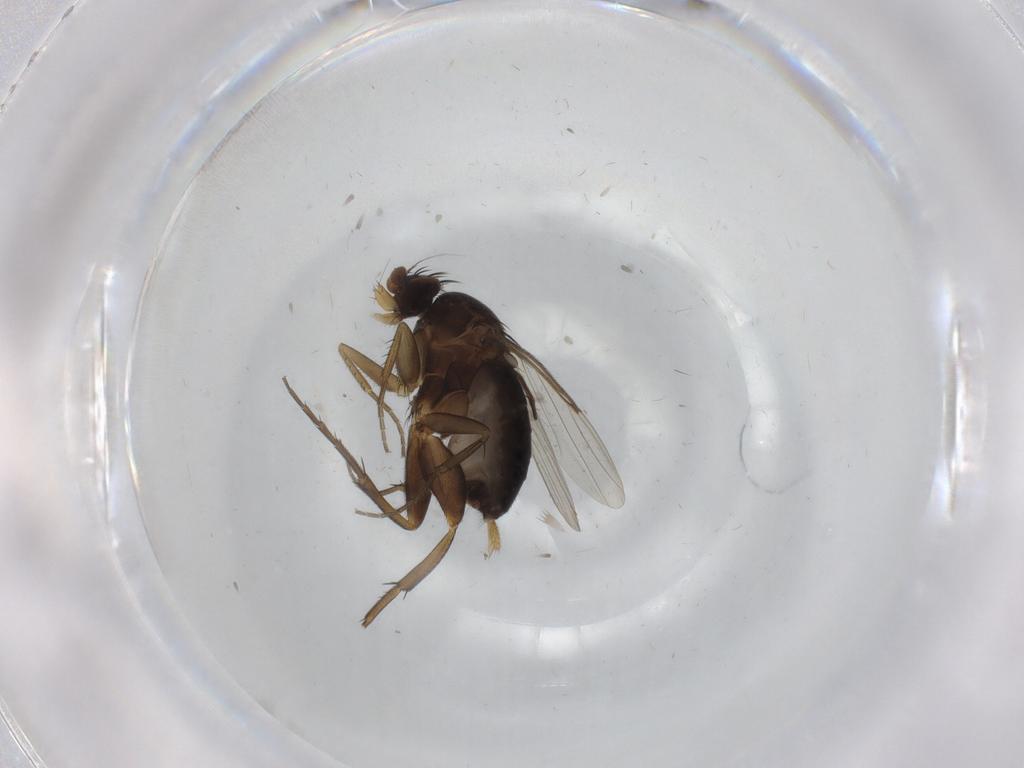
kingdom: Animalia
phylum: Arthropoda
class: Insecta
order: Diptera
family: Phoridae
